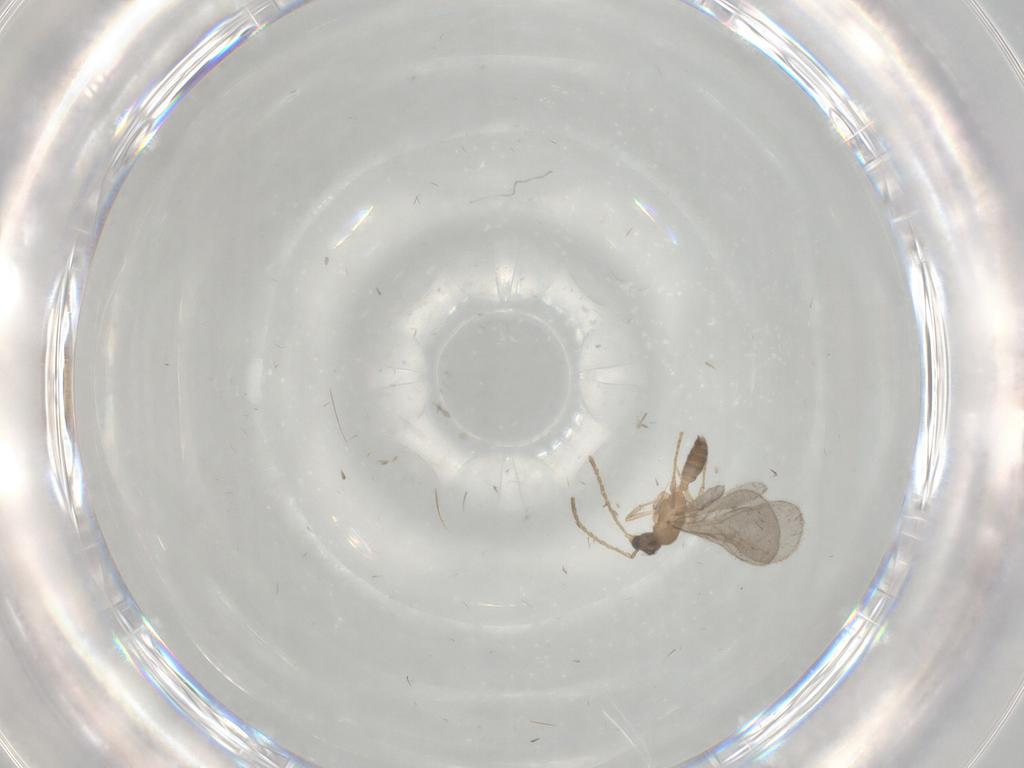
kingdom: Animalia
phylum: Arthropoda
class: Insecta
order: Hymenoptera
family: Formicidae
